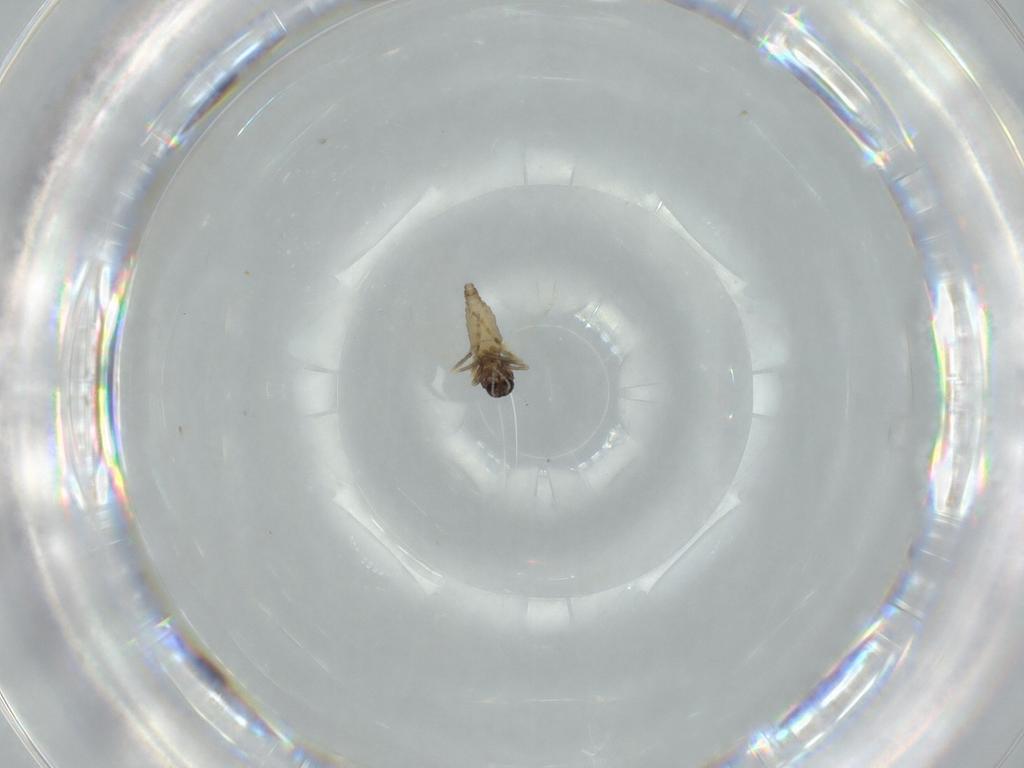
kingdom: Animalia
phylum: Arthropoda
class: Insecta
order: Diptera
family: Ceratopogonidae
